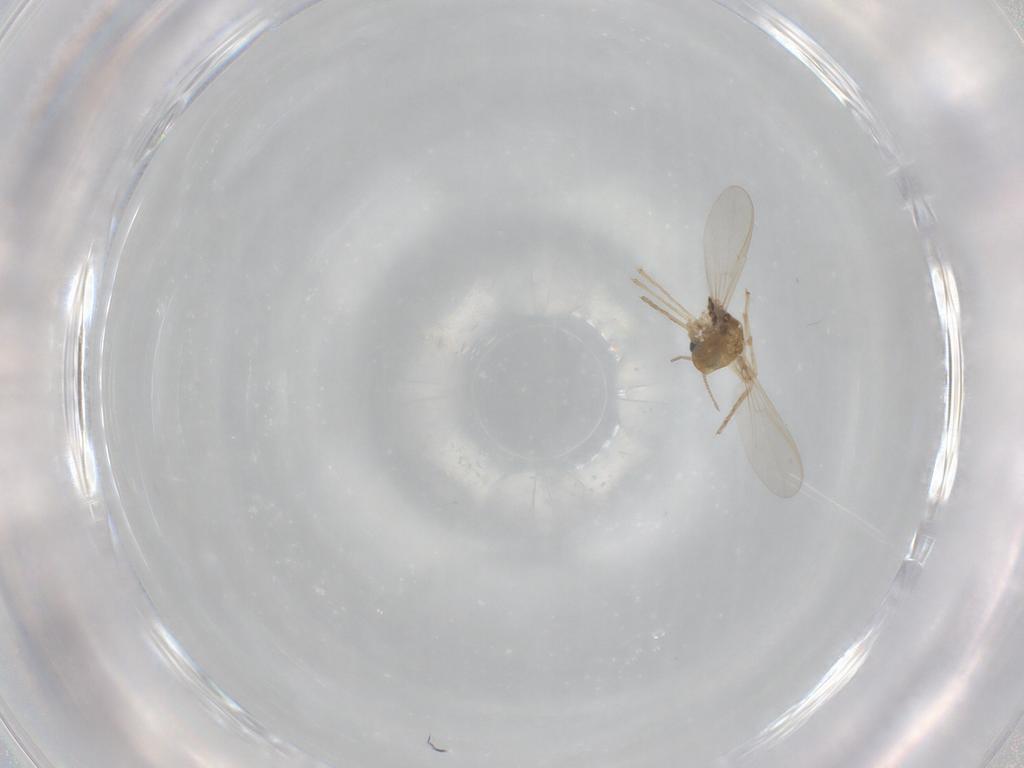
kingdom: Animalia
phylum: Arthropoda
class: Insecta
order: Diptera
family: Chironomidae
